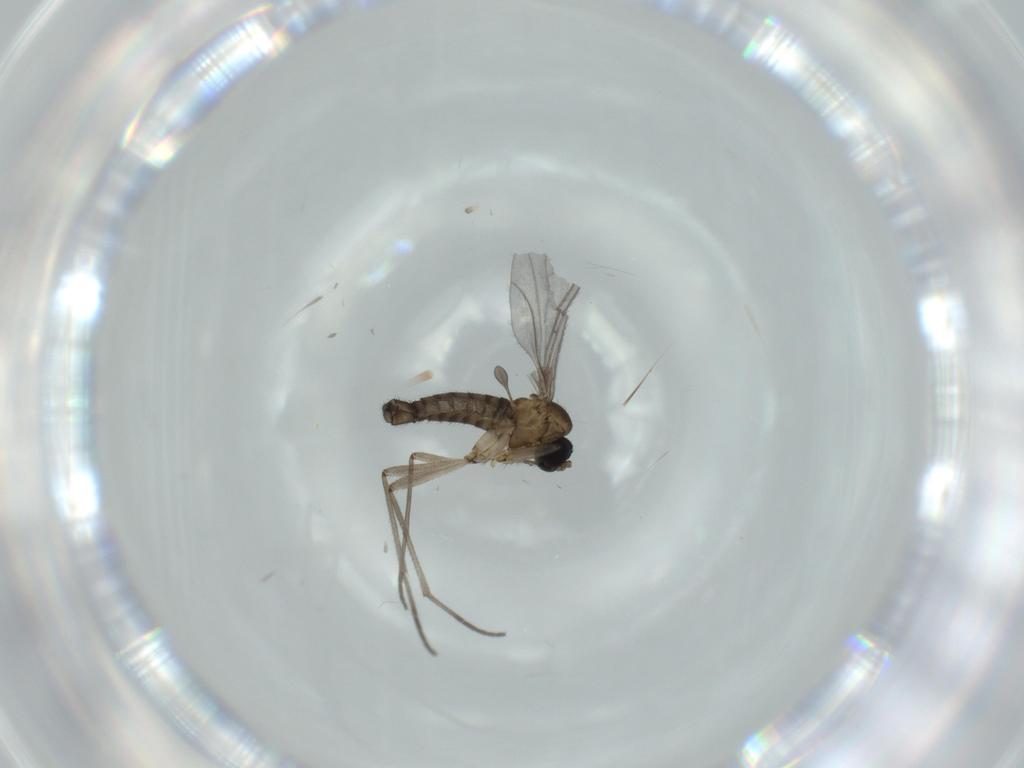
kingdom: Animalia
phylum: Arthropoda
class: Insecta
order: Diptera
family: Sciaridae
